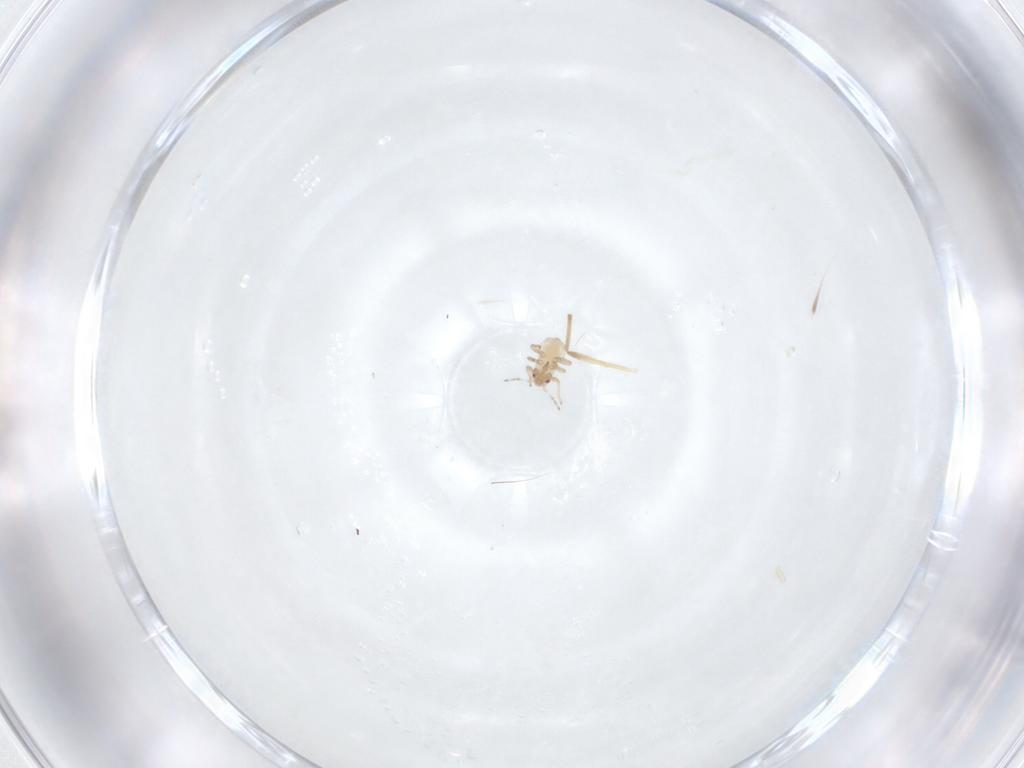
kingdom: Animalia
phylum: Arthropoda
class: Insecta
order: Diptera
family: Chironomidae
